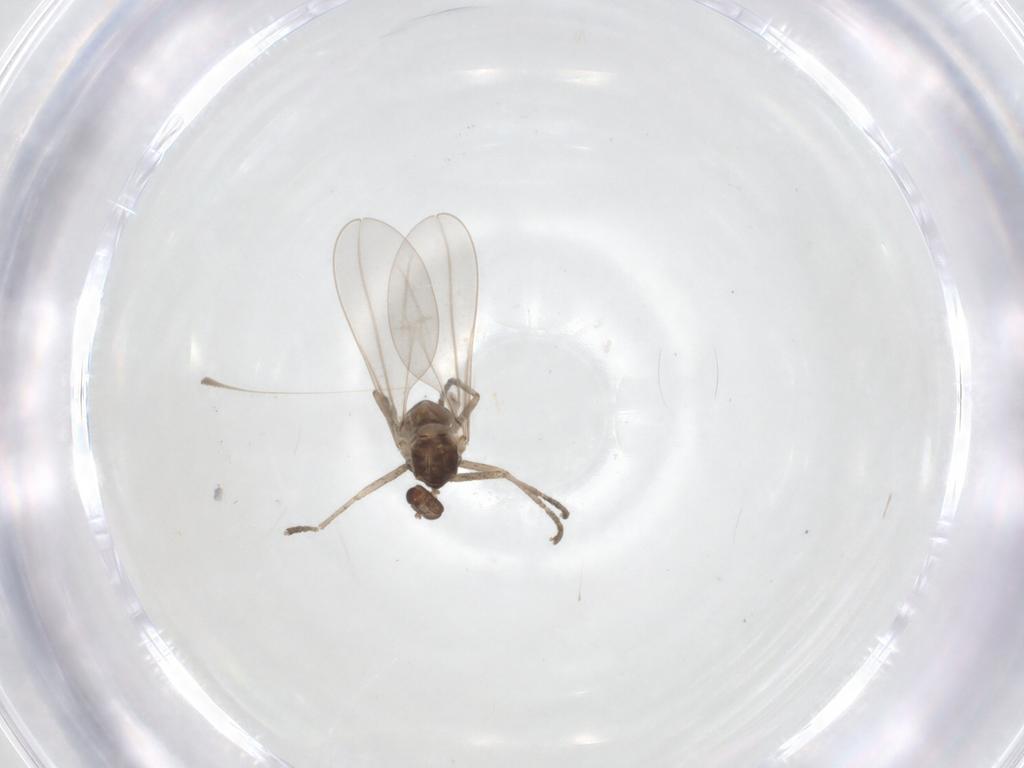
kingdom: Animalia
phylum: Arthropoda
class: Insecta
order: Diptera
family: Cecidomyiidae
